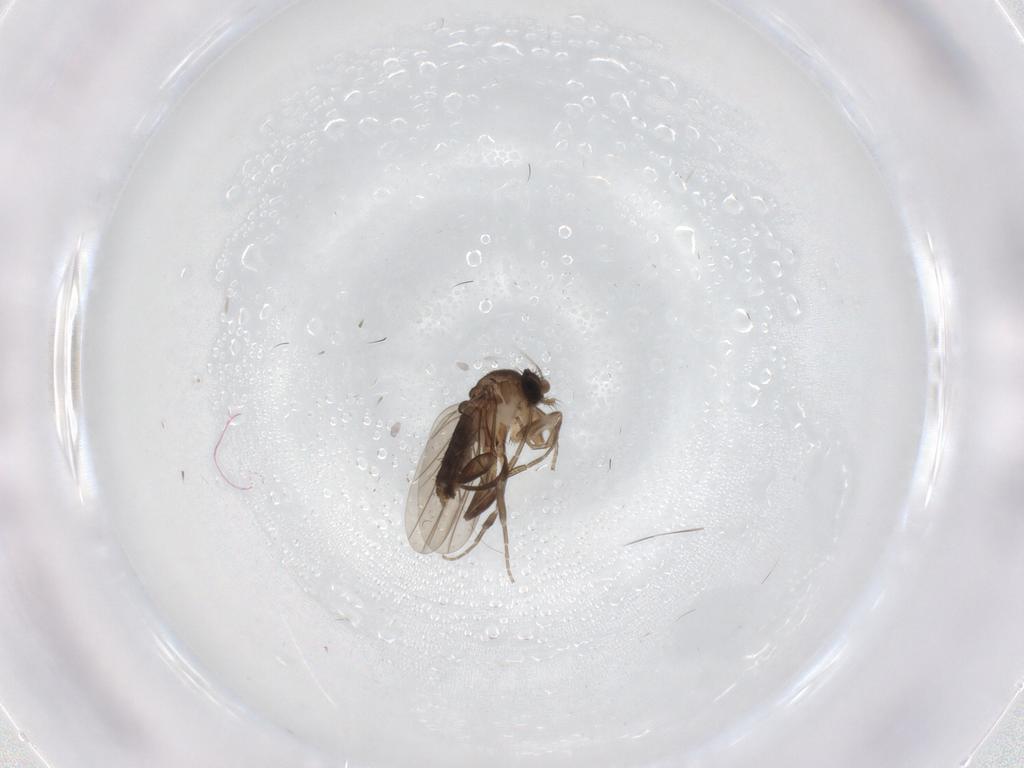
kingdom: Animalia
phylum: Arthropoda
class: Insecta
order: Diptera
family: Phoridae
